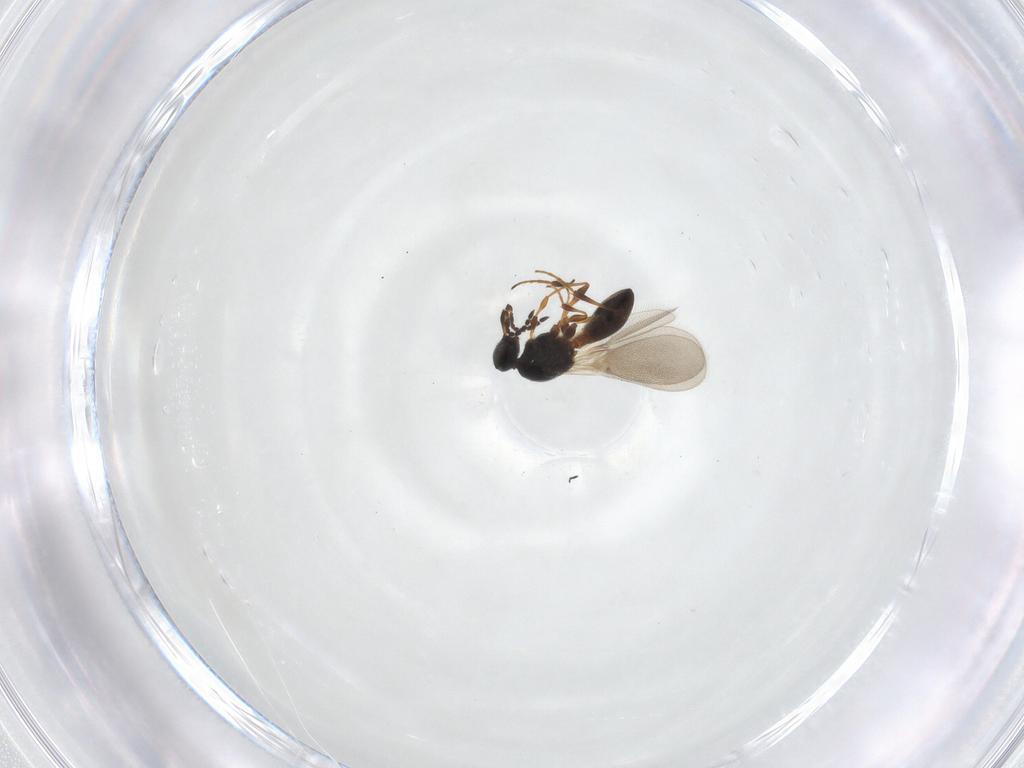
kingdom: Animalia
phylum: Arthropoda
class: Insecta
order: Hymenoptera
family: Platygastridae
